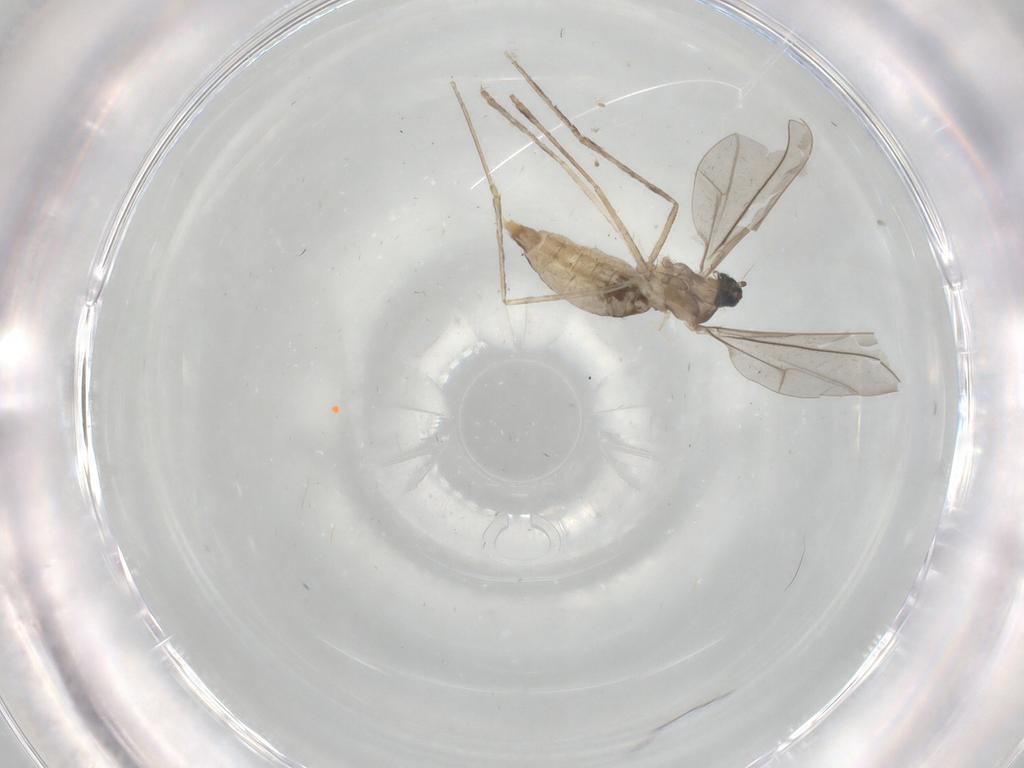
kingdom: Animalia
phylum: Arthropoda
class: Insecta
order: Diptera
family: Cecidomyiidae
